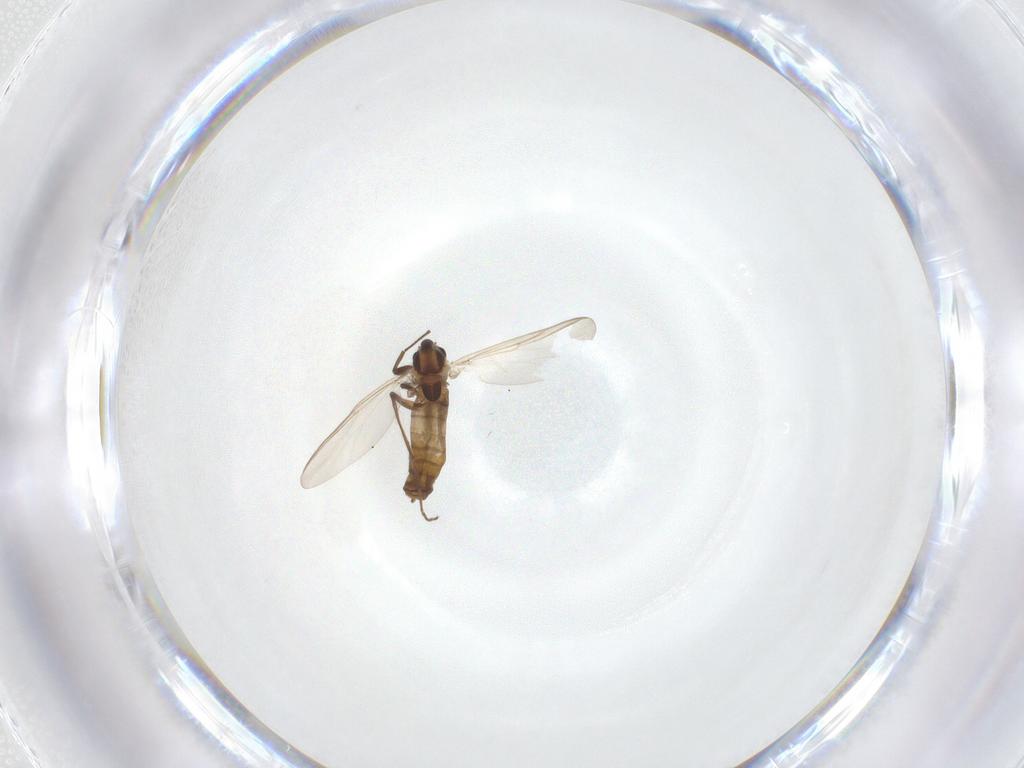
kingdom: Animalia
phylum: Arthropoda
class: Insecta
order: Diptera
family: Chironomidae
